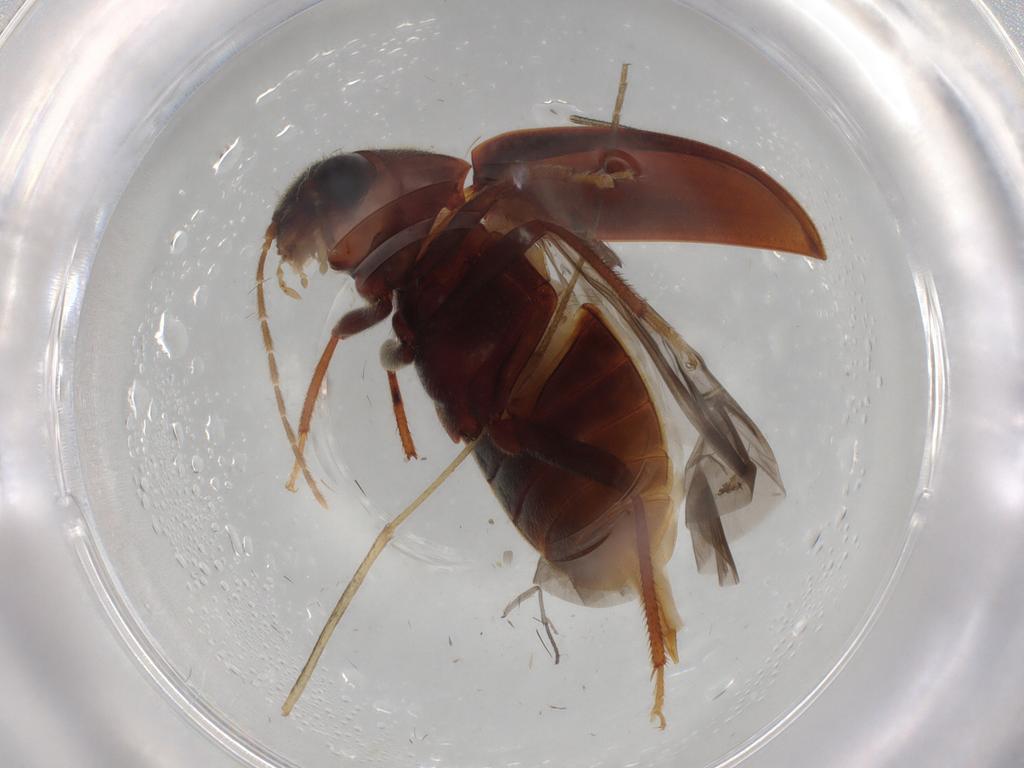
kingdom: Animalia
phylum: Arthropoda
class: Insecta
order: Coleoptera
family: Ptilodactylidae
